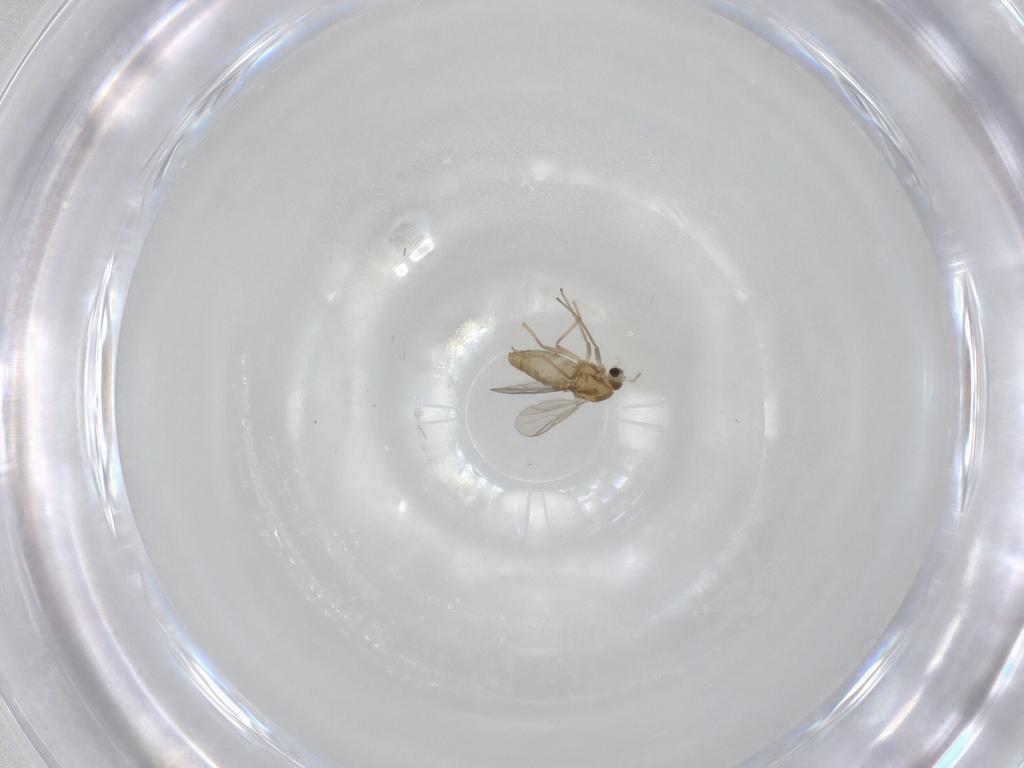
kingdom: Animalia
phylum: Arthropoda
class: Insecta
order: Diptera
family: Chironomidae
